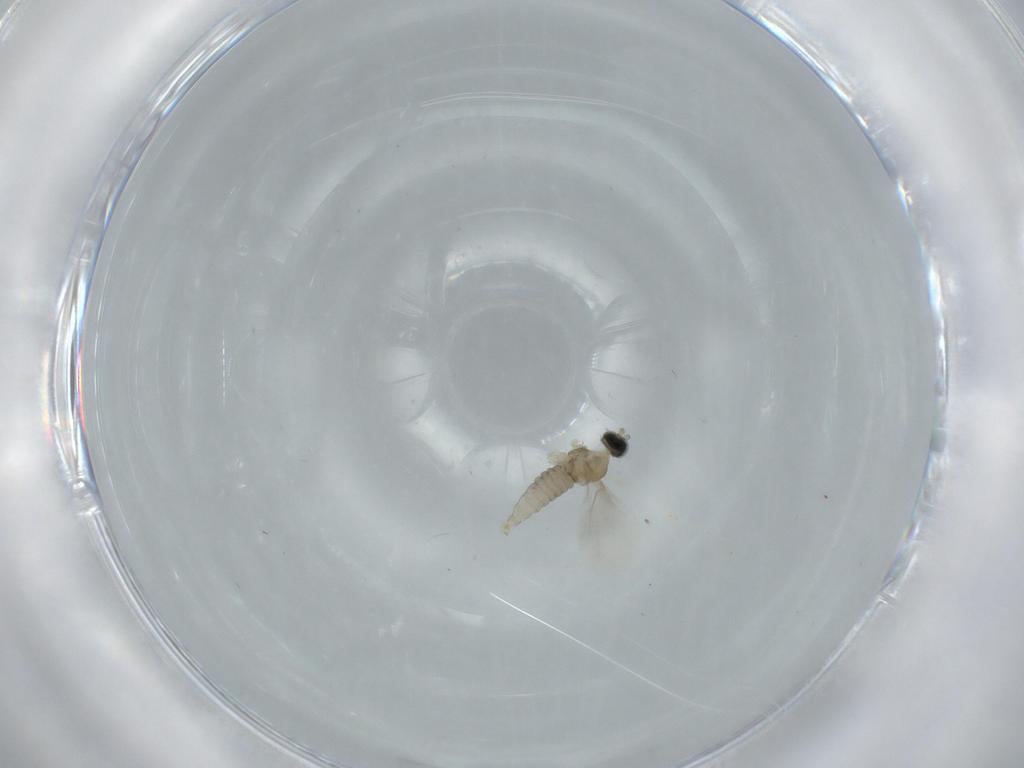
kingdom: Animalia
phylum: Arthropoda
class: Insecta
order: Diptera
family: Cecidomyiidae
